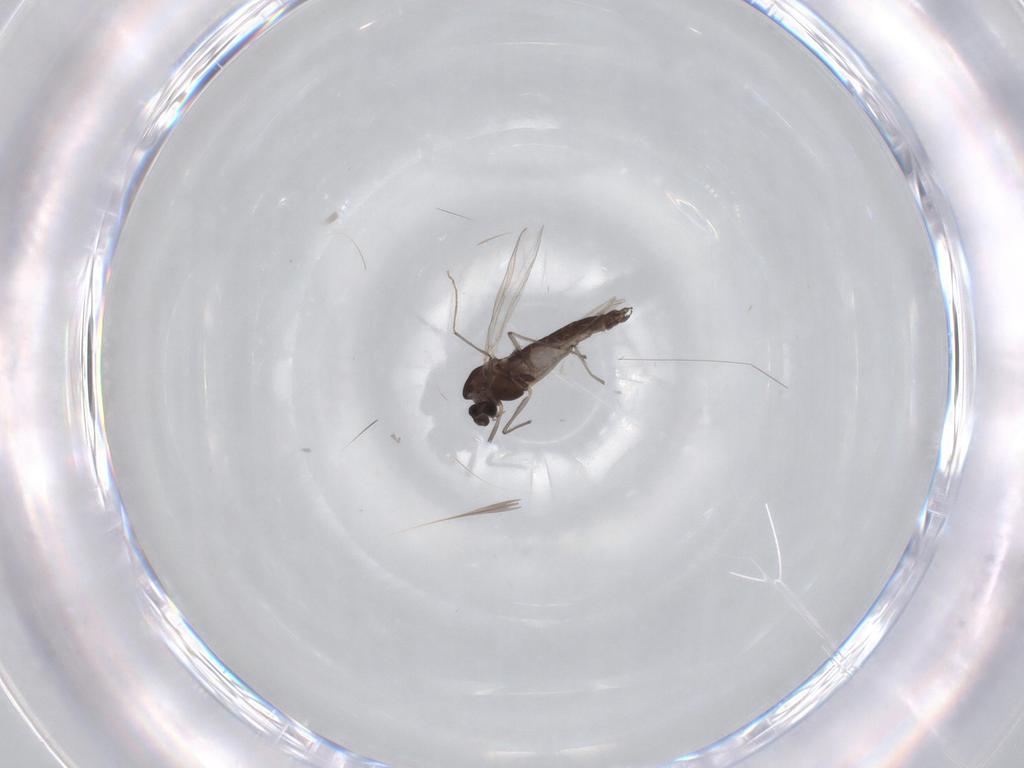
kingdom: Animalia
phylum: Arthropoda
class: Insecta
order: Diptera
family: Chironomidae
